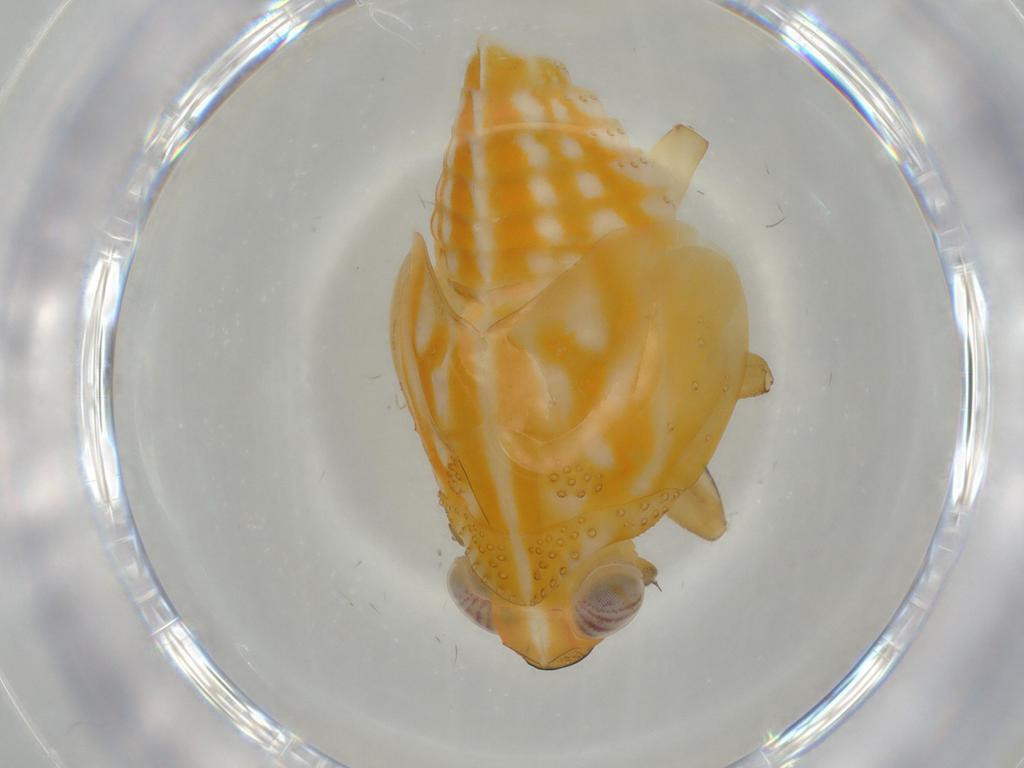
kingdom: Animalia
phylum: Arthropoda
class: Insecta
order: Hemiptera
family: Issidae
